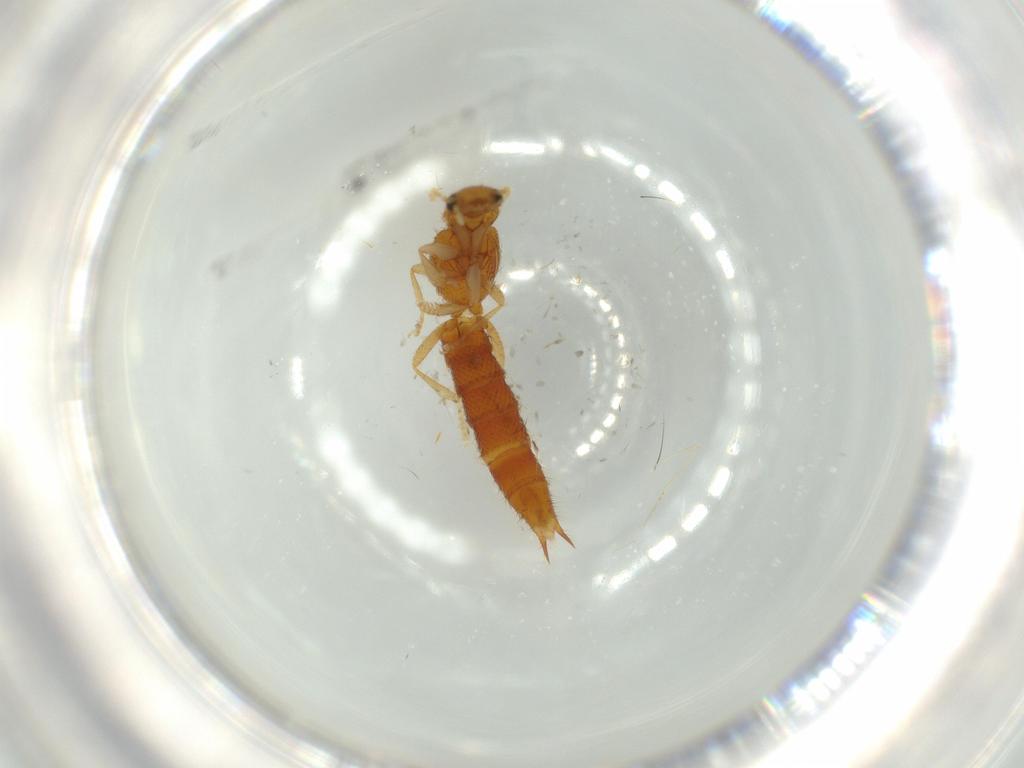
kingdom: Animalia
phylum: Arthropoda
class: Insecta
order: Coleoptera
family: Staphylinidae
